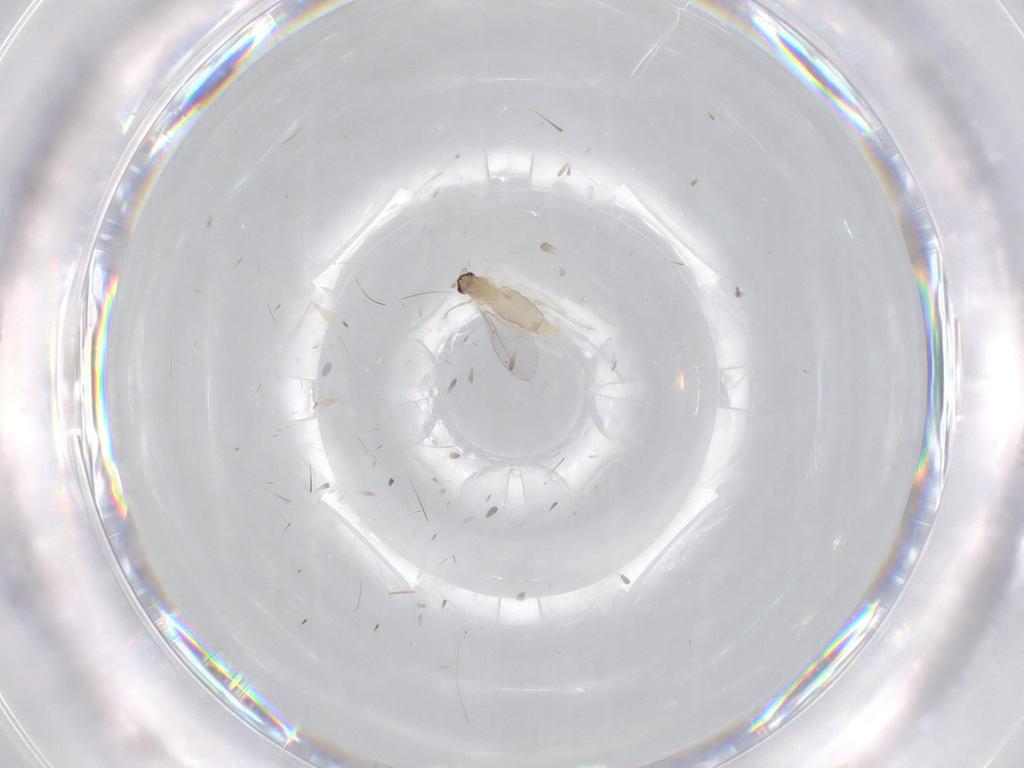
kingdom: Animalia
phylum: Arthropoda
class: Insecta
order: Diptera
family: Cecidomyiidae
